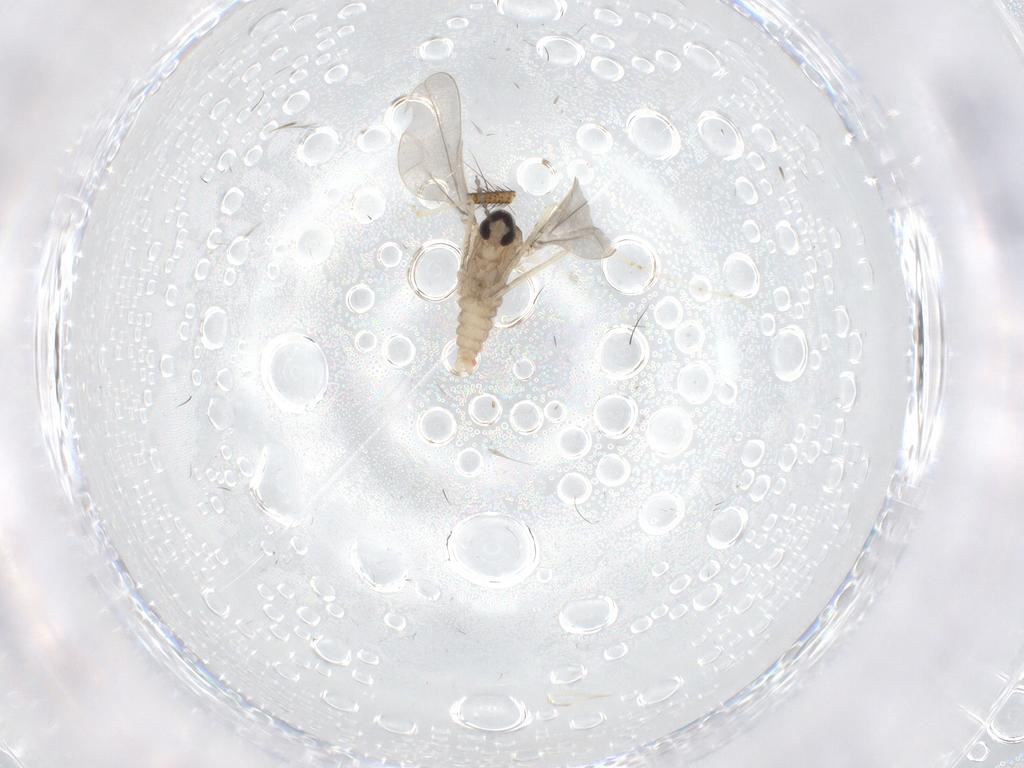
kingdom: Animalia
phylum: Arthropoda
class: Insecta
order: Diptera
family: Cecidomyiidae
